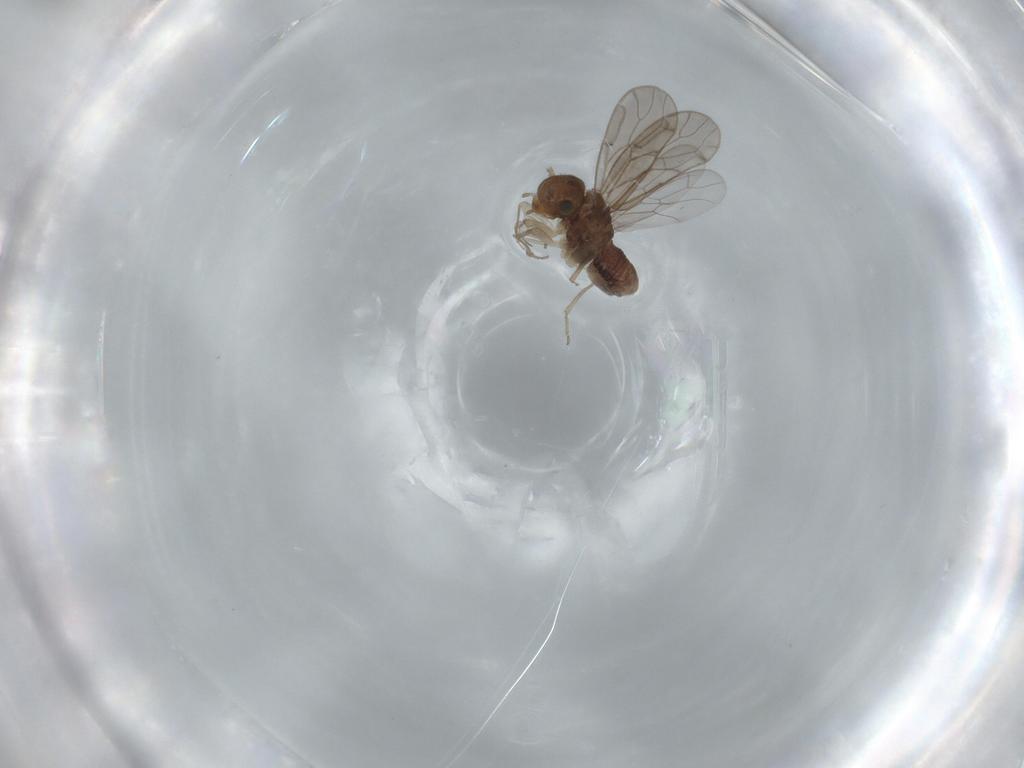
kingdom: Animalia
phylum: Arthropoda
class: Insecta
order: Psocodea
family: Ectopsocidae
